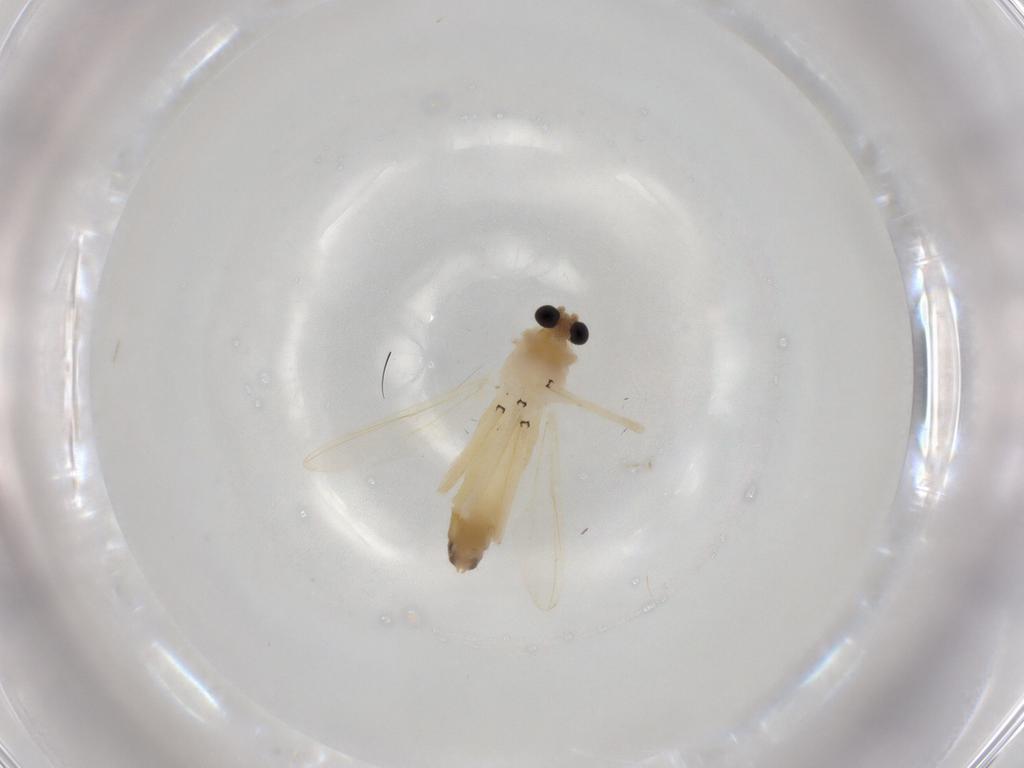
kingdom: Animalia
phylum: Arthropoda
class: Insecta
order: Diptera
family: Chironomidae
